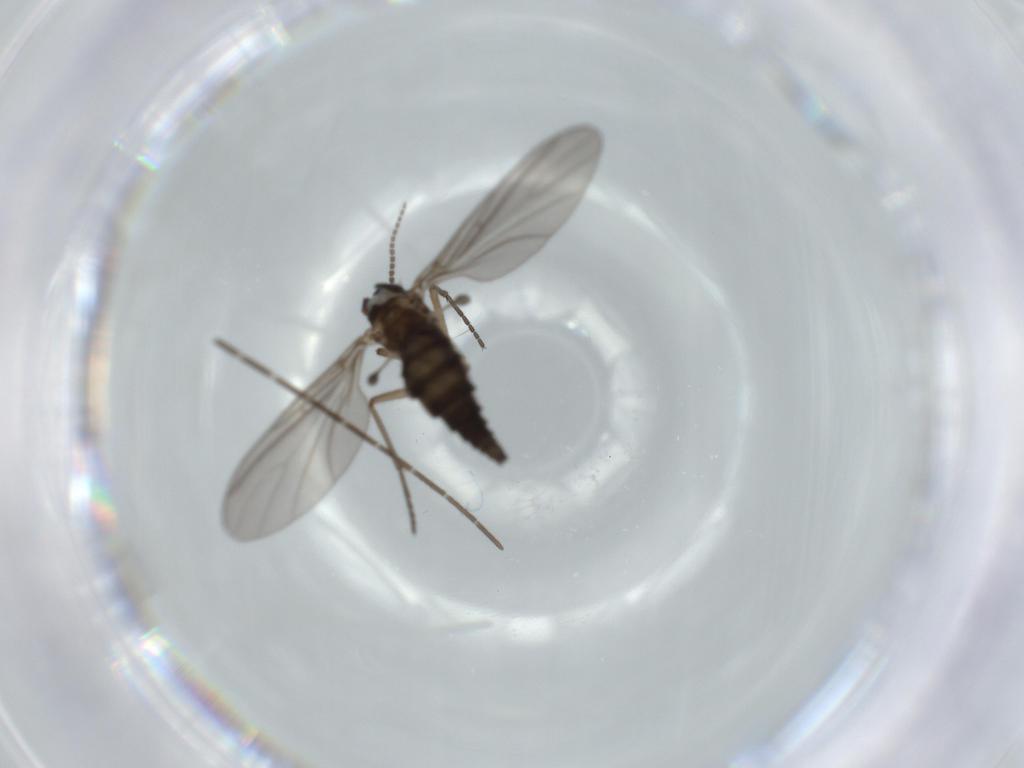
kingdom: Animalia
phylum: Arthropoda
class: Insecta
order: Diptera
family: Sciaridae
